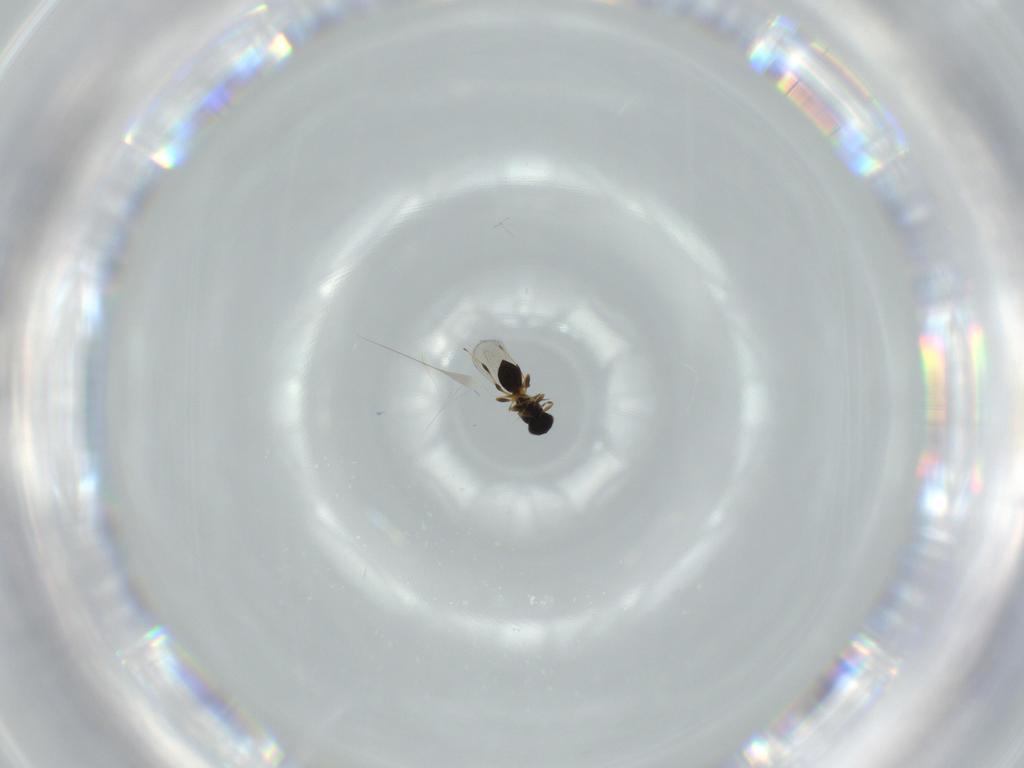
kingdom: Animalia
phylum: Arthropoda
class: Insecta
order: Hymenoptera
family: Platygastridae
